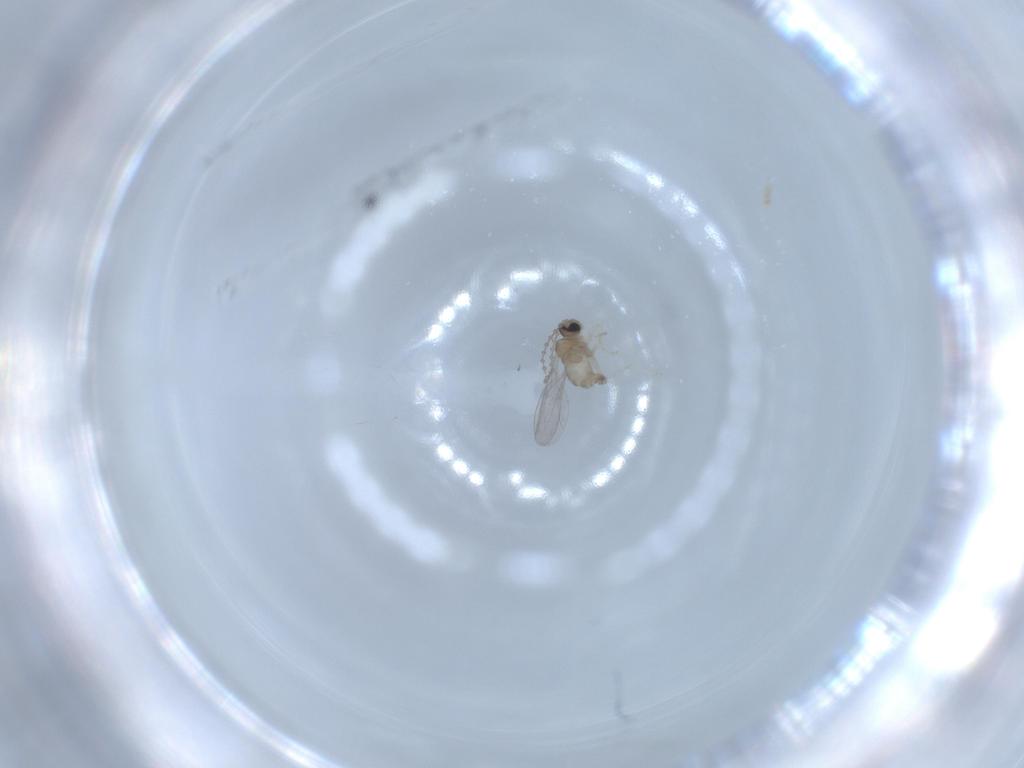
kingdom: Animalia
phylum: Arthropoda
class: Insecta
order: Diptera
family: Cecidomyiidae
